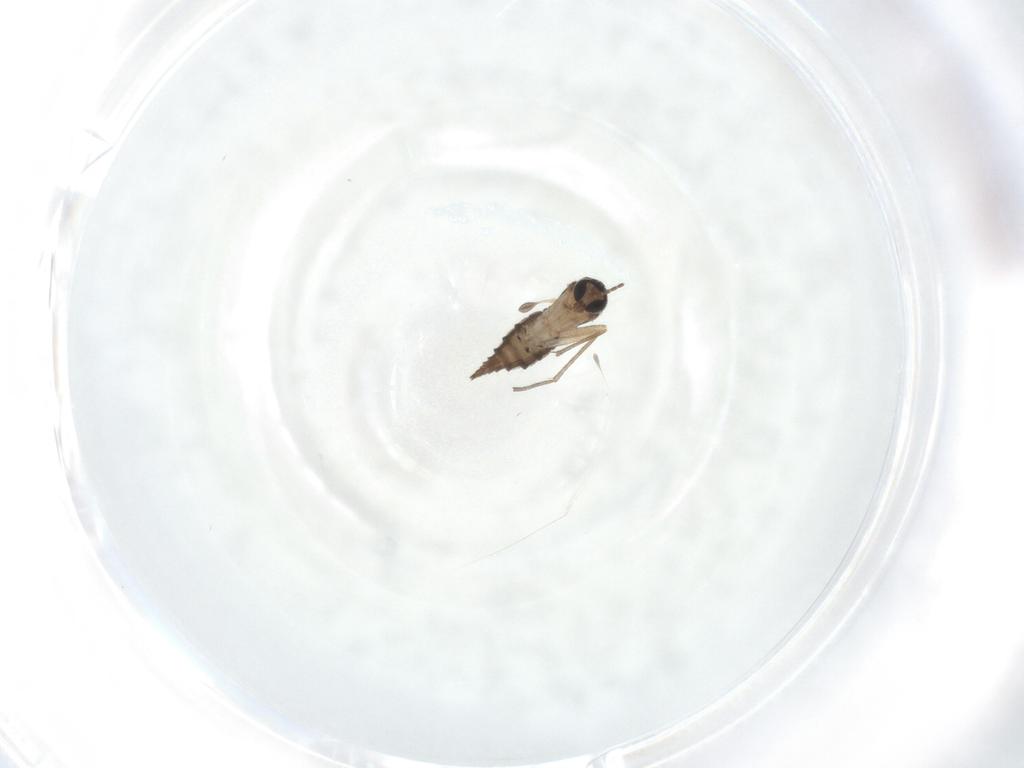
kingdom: Animalia
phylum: Arthropoda
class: Insecta
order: Diptera
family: Sciaridae
